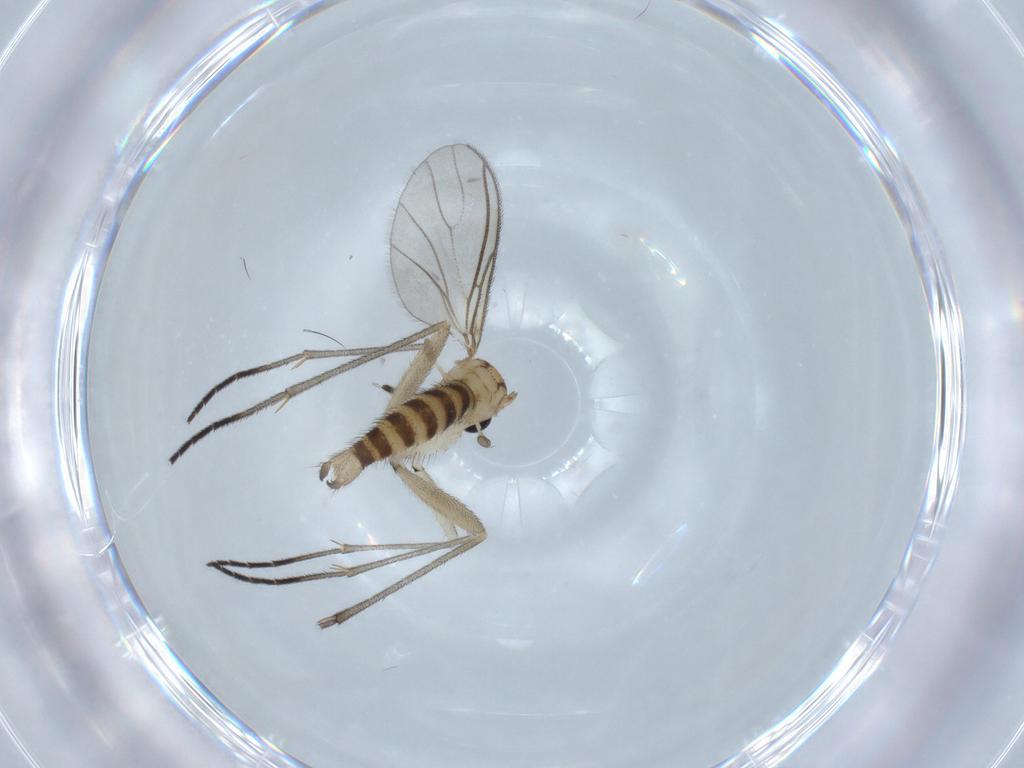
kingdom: Animalia
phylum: Arthropoda
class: Insecta
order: Diptera
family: Sciaridae
